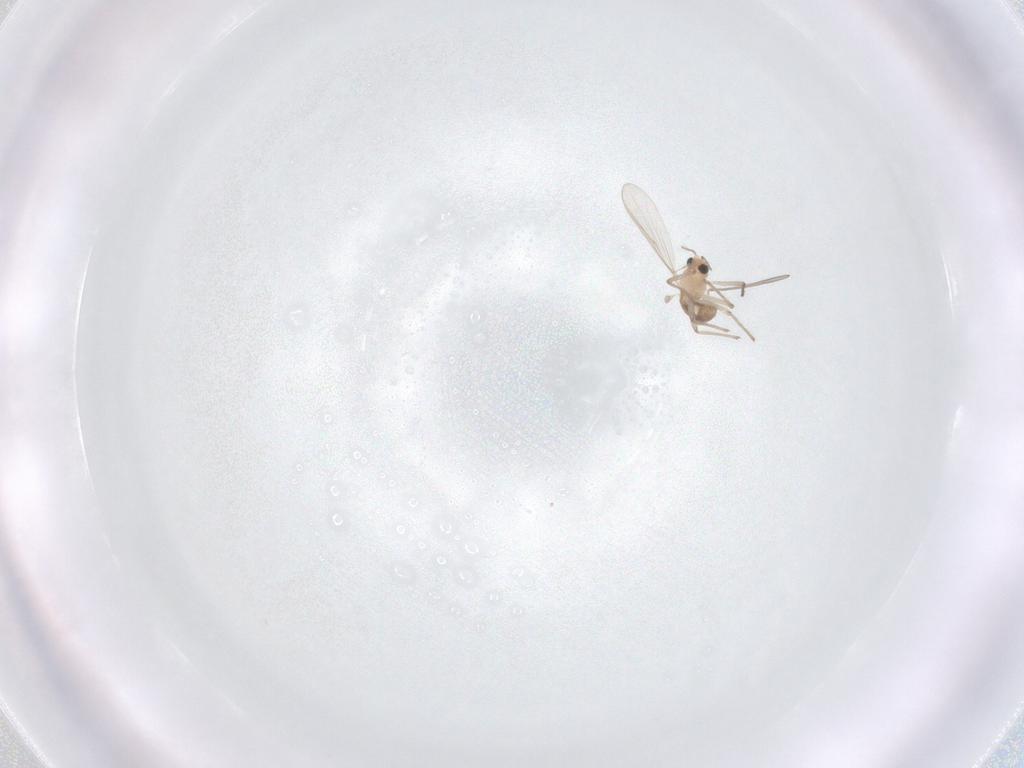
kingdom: Animalia
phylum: Arthropoda
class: Insecta
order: Diptera
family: Chironomidae
